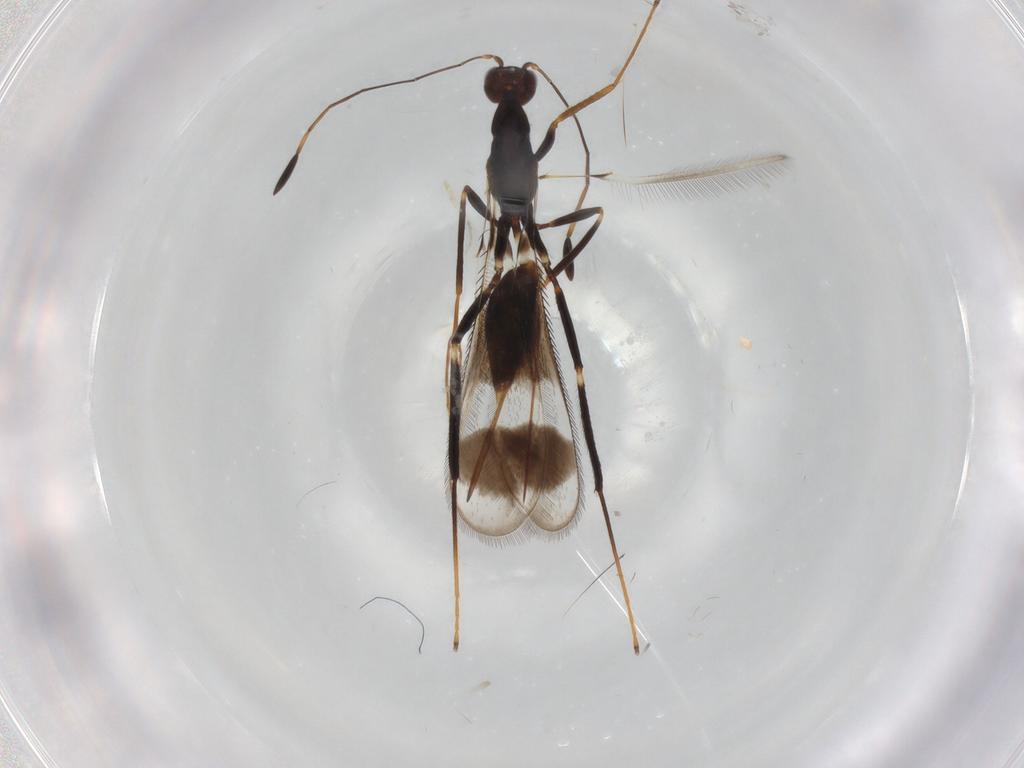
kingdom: Animalia
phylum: Arthropoda
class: Insecta
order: Hymenoptera
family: Mymaridae
